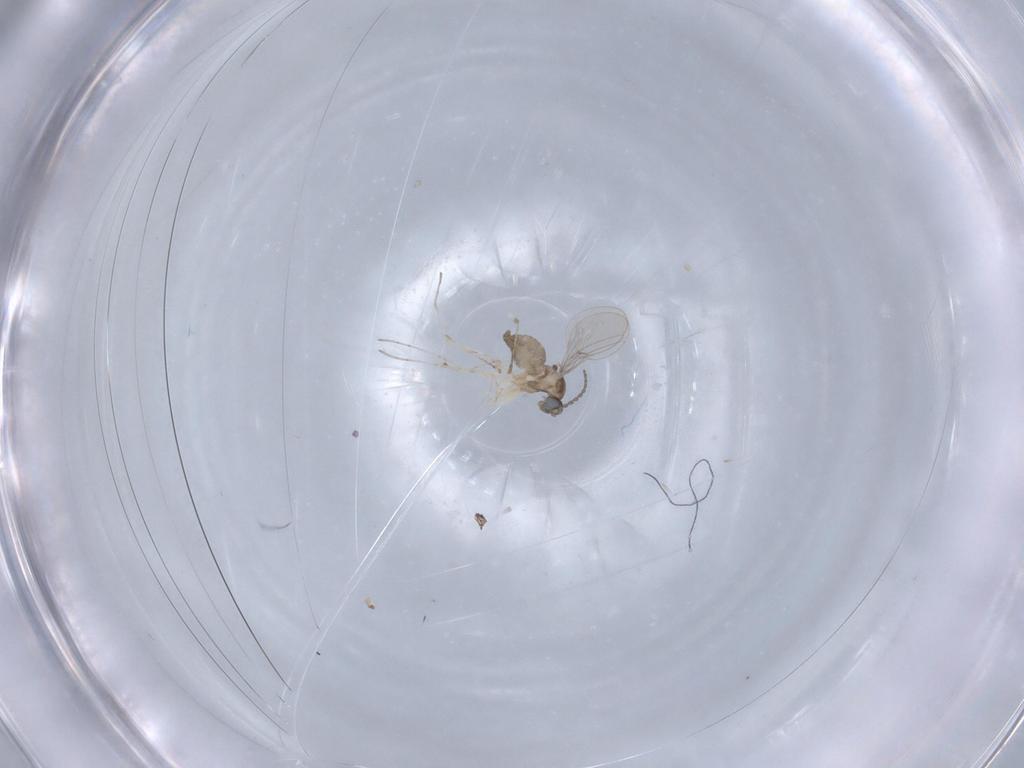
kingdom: Animalia
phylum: Arthropoda
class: Insecta
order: Diptera
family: Cecidomyiidae
